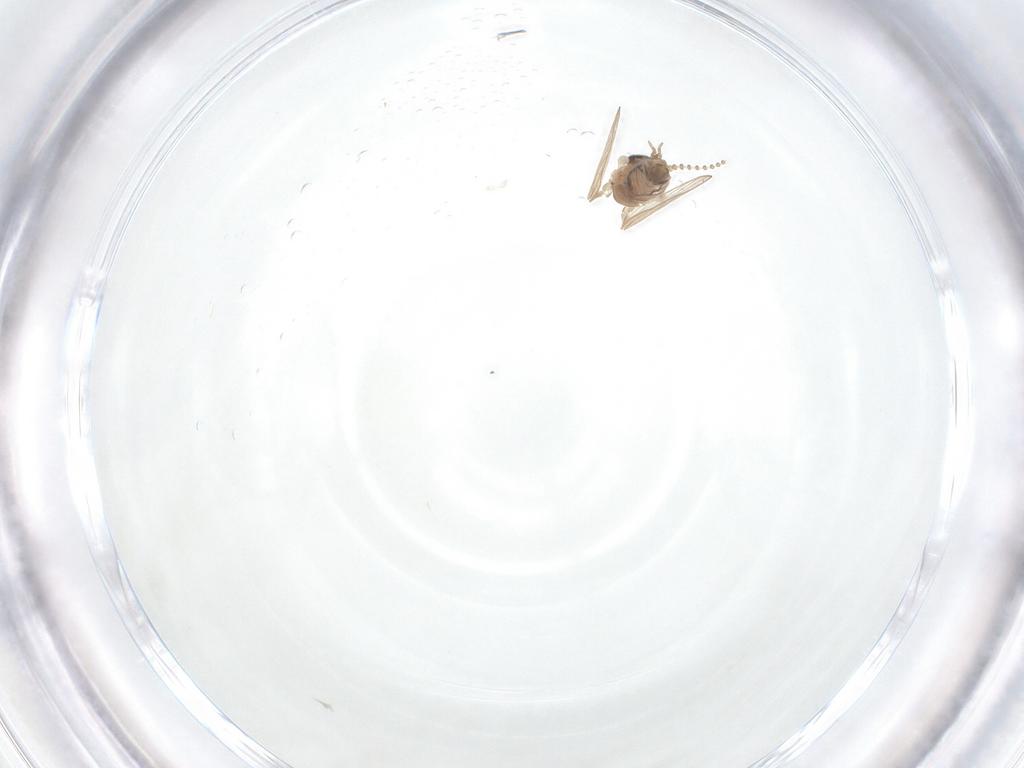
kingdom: Animalia
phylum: Arthropoda
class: Insecta
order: Diptera
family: Psychodidae
